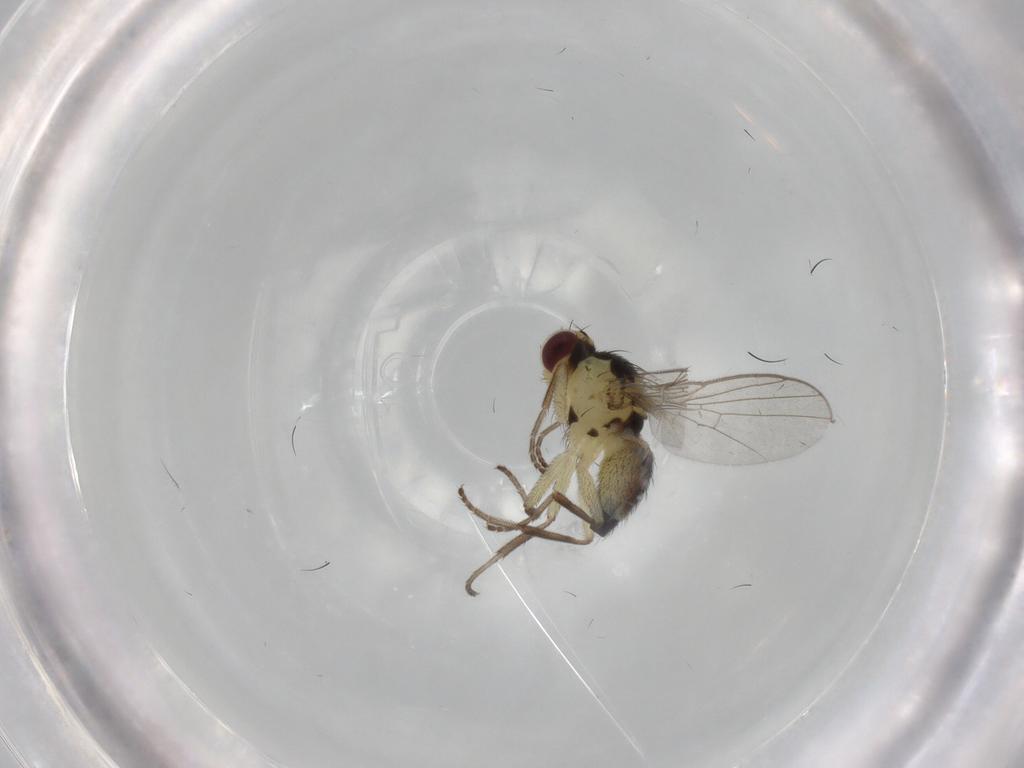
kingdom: Animalia
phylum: Arthropoda
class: Insecta
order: Diptera
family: Agromyzidae
